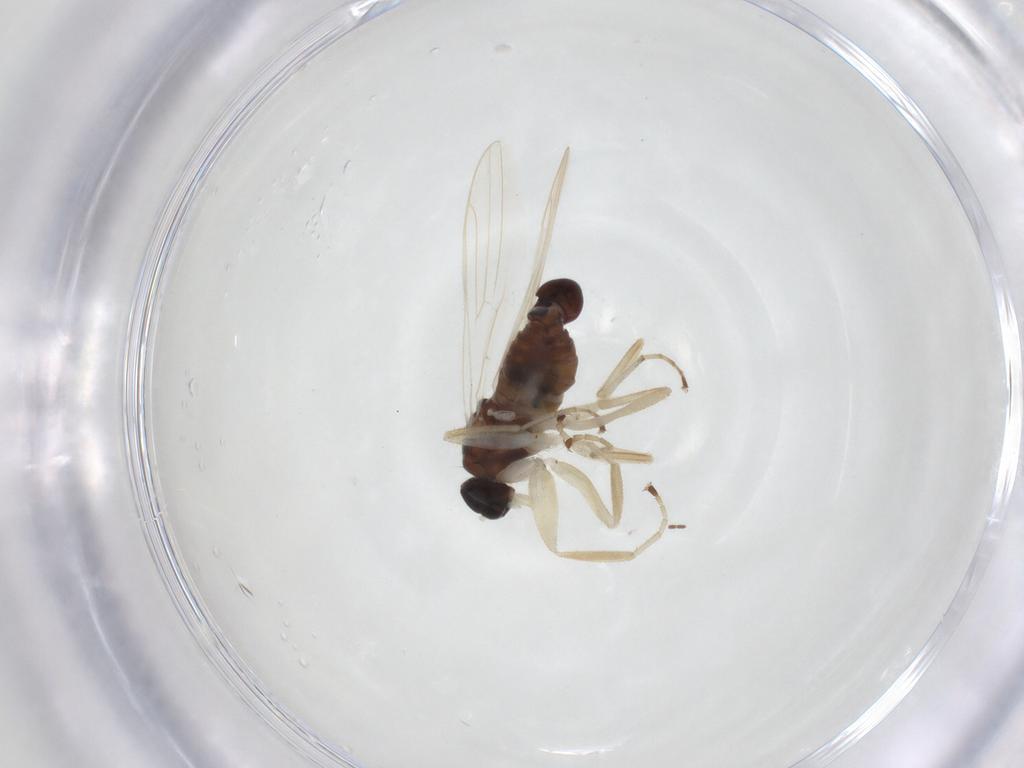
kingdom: Animalia
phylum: Arthropoda
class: Insecta
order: Diptera
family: Hybotidae
